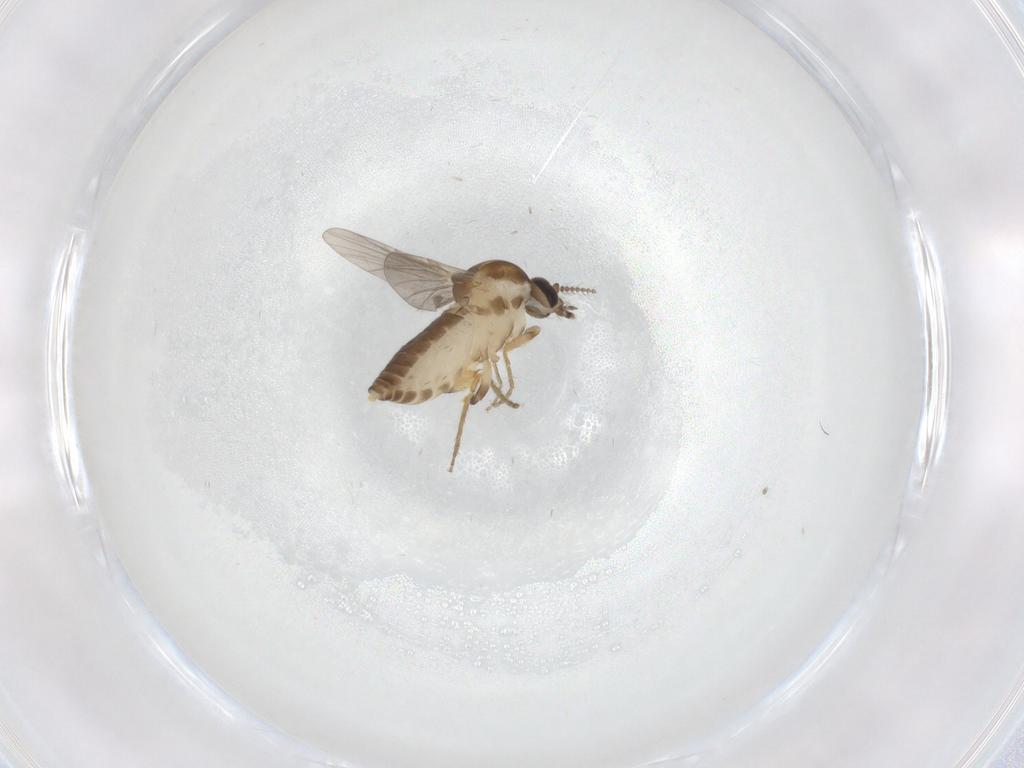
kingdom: Animalia
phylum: Arthropoda
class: Insecta
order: Diptera
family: Ceratopogonidae
